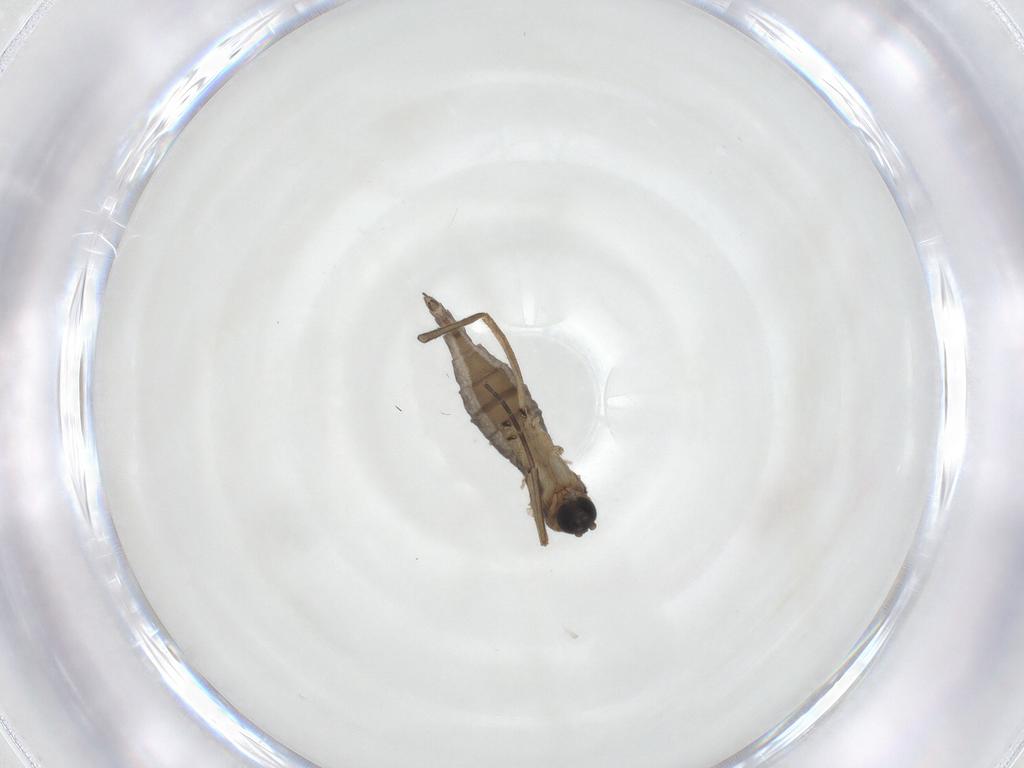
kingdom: Animalia
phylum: Arthropoda
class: Insecta
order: Diptera
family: Sciaridae
